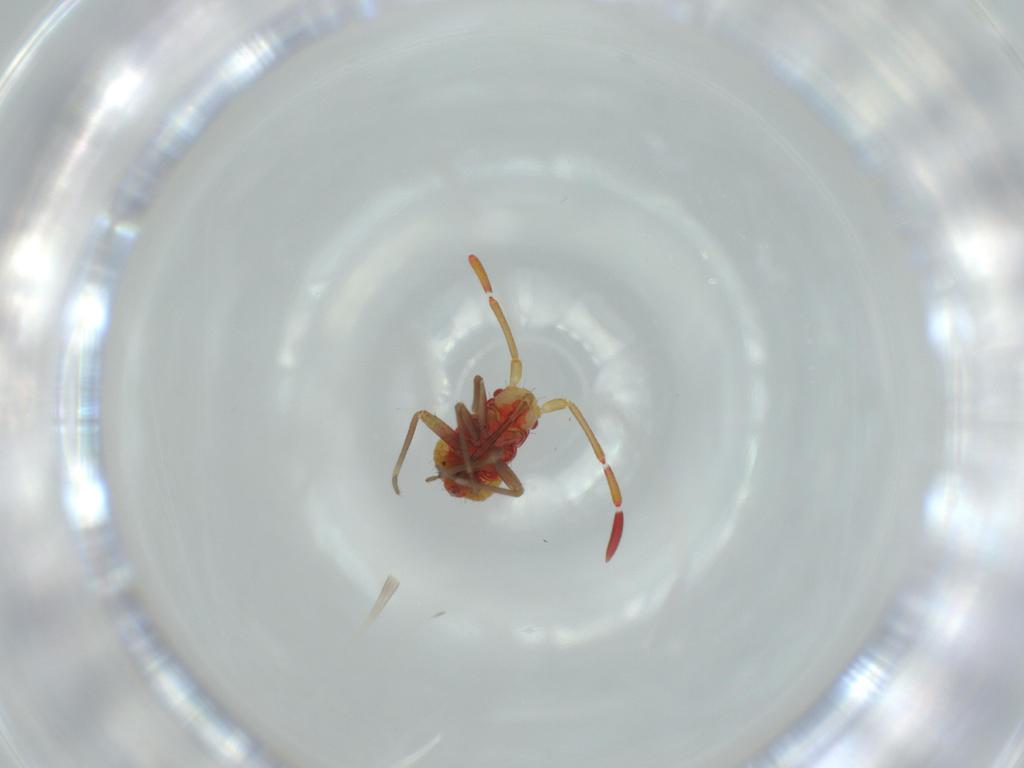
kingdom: Animalia
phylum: Arthropoda
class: Insecta
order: Hemiptera
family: Miridae
